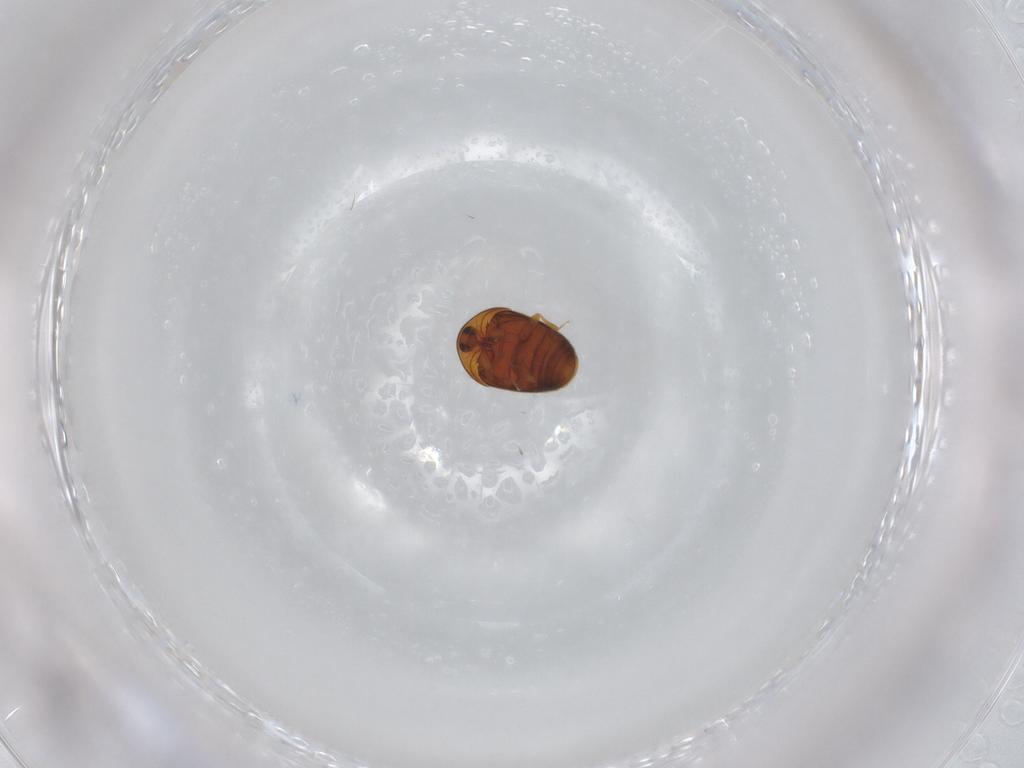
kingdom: Animalia
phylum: Arthropoda
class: Insecta
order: Coleoptera
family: Corylophidae
